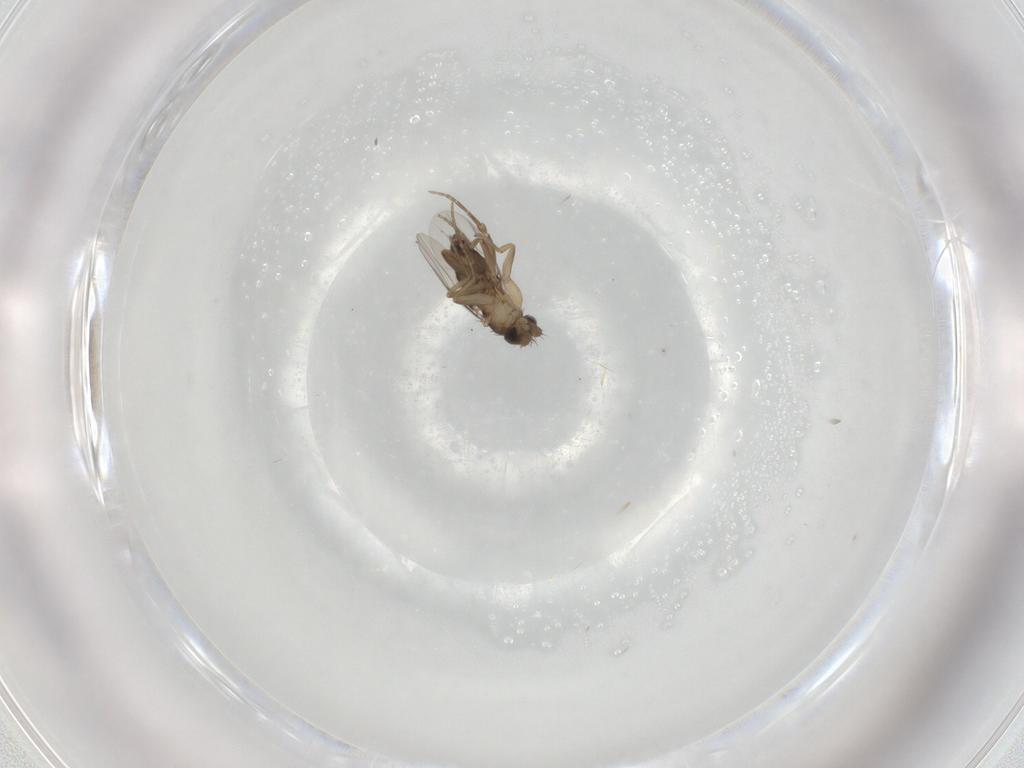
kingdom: Animalia
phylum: Arthropoda
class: Insecta
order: Diptera
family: Phoridae
